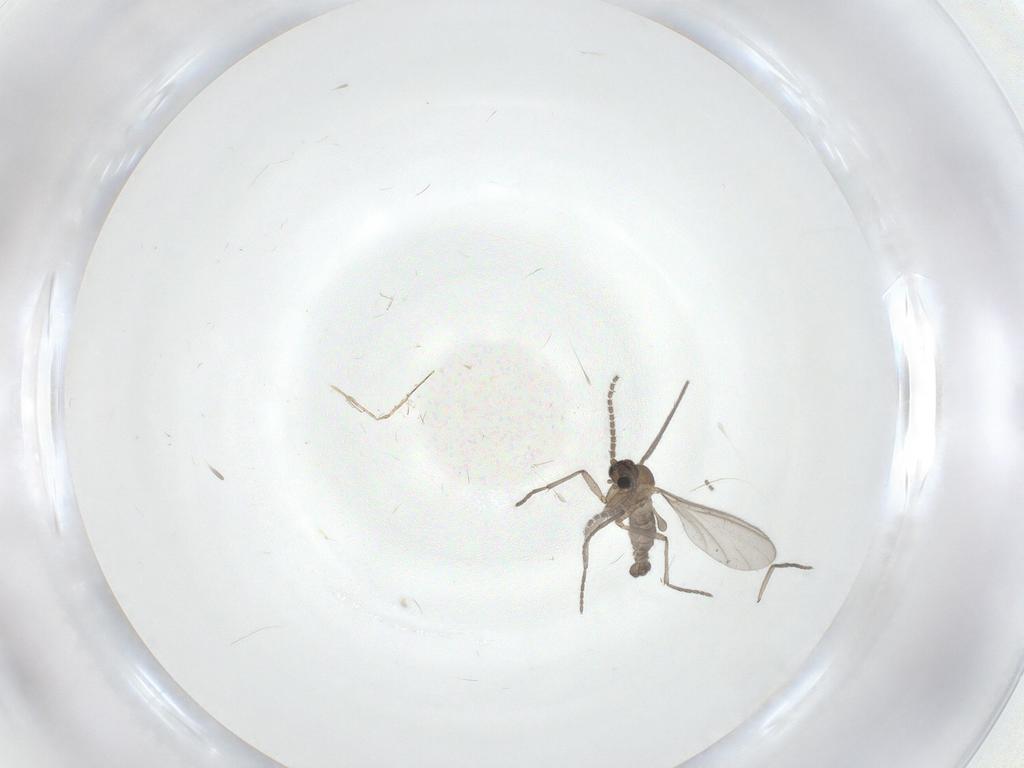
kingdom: Animalia
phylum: Arthropoda
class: Insecta
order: Diptera
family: Sciaridae
